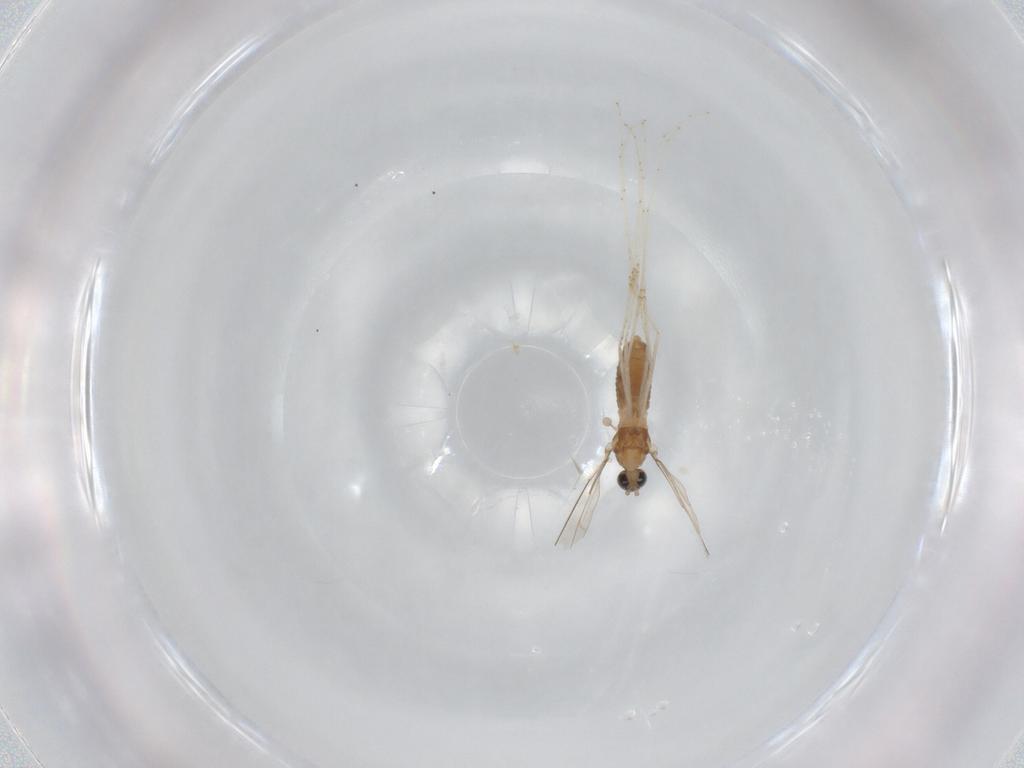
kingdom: Animalia
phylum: Arthropoda
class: Insecta
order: Diptera
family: Cecidomyiidae
